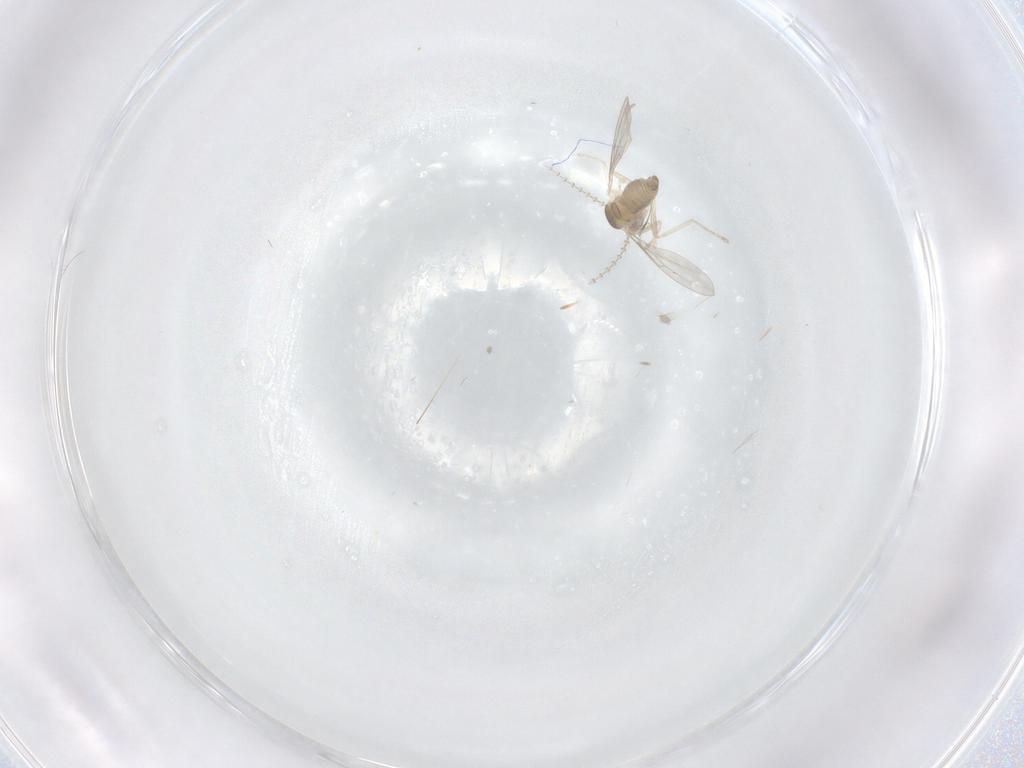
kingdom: Animalia
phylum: Arthropoda
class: Insecta
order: Diptera
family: Cecidomyiidae
